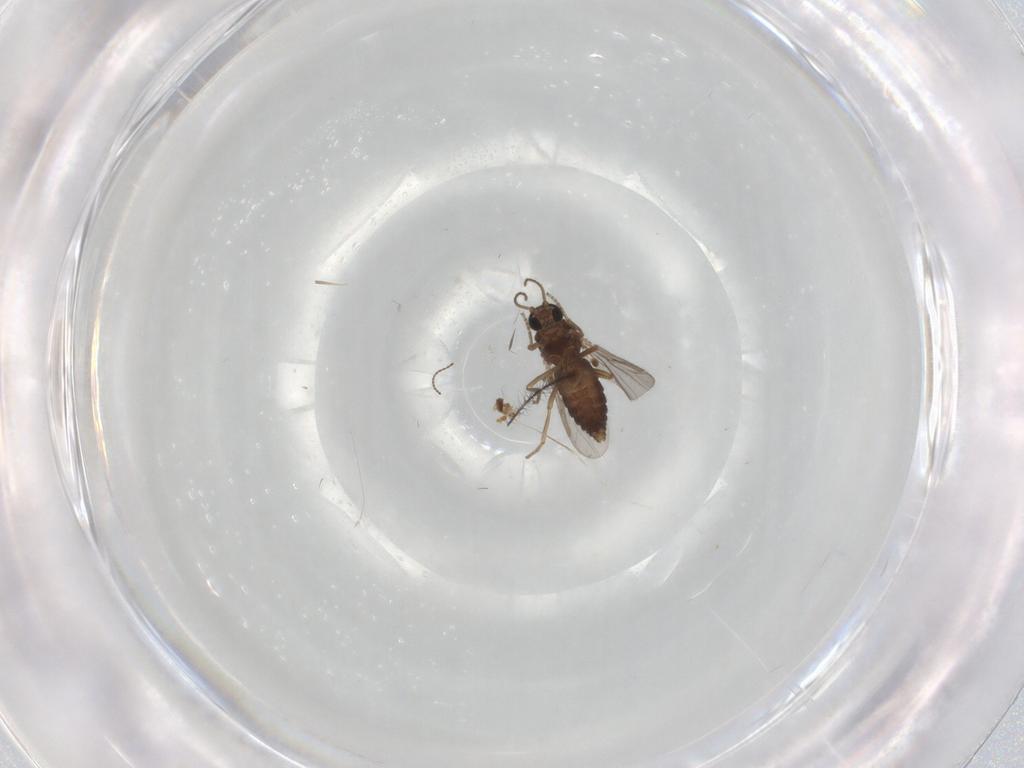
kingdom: Animalia
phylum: Arthropoda
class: Insecta
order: Diptera
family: Ceratopogonidae
